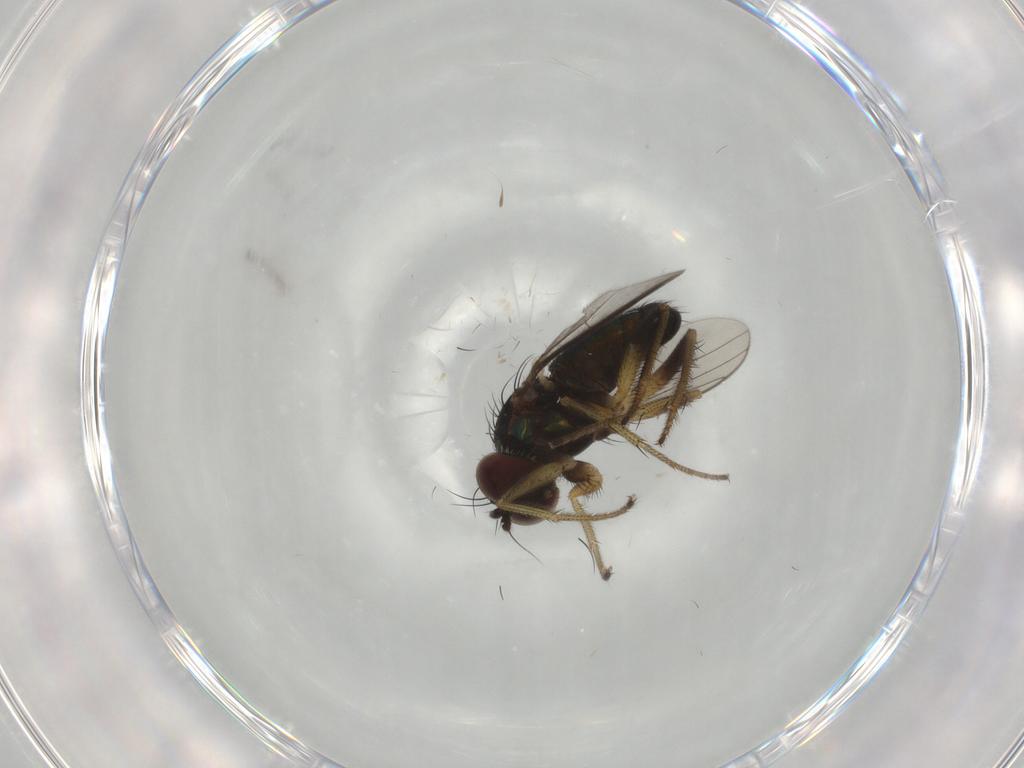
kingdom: Animalia
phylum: Arthropoda
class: Insecta
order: Diptera
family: Dolichopodidae
